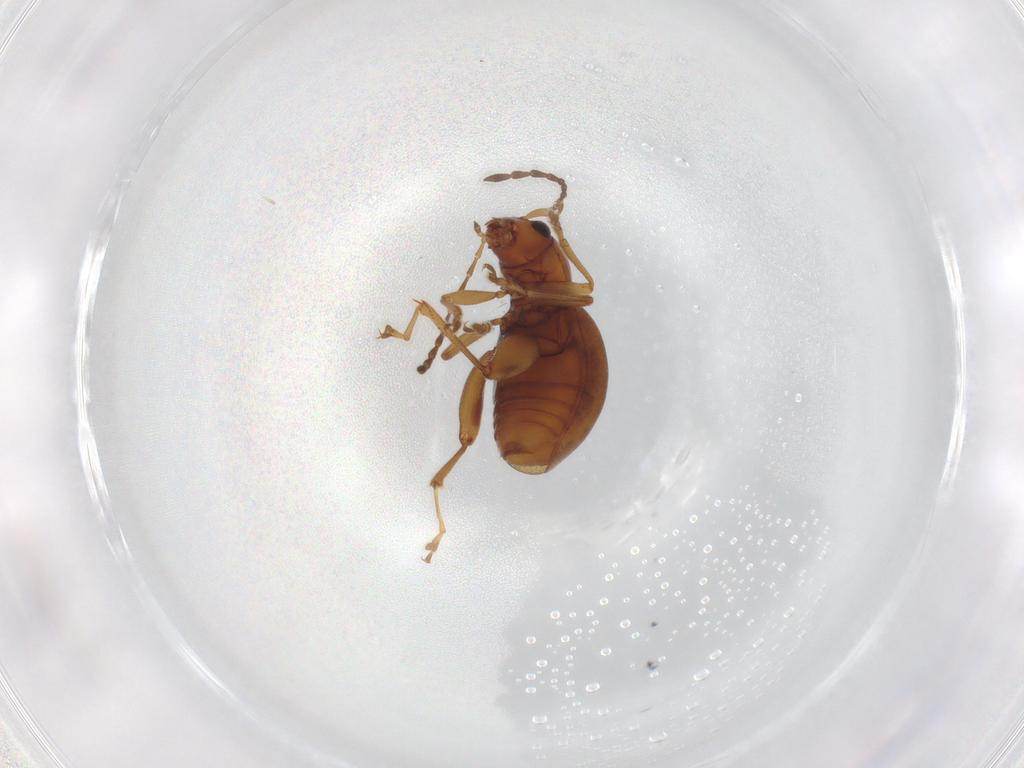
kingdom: Animalia
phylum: Arthropoda
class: Insecta
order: Coleoptera
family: Chrysomelidae
